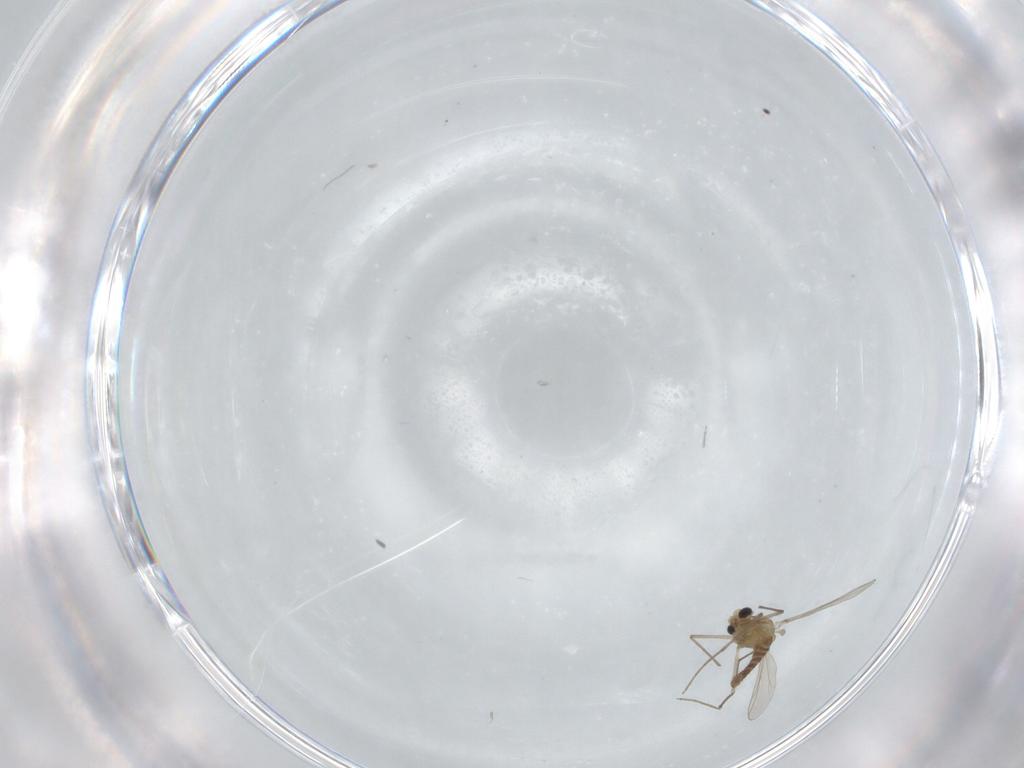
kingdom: Animalia
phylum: Arthropoda
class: Insecta
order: Diptera
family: Chironomidae
